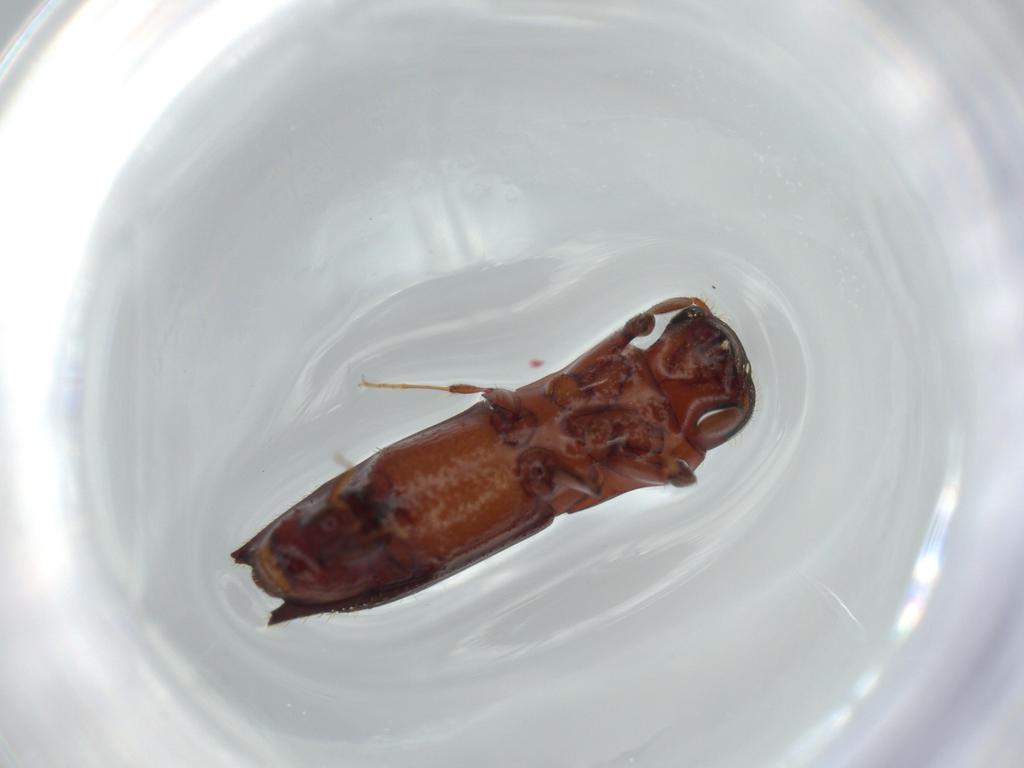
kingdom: Animalia
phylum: Arthropoda
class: Insecta
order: Coleoptera
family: Curculionidae
